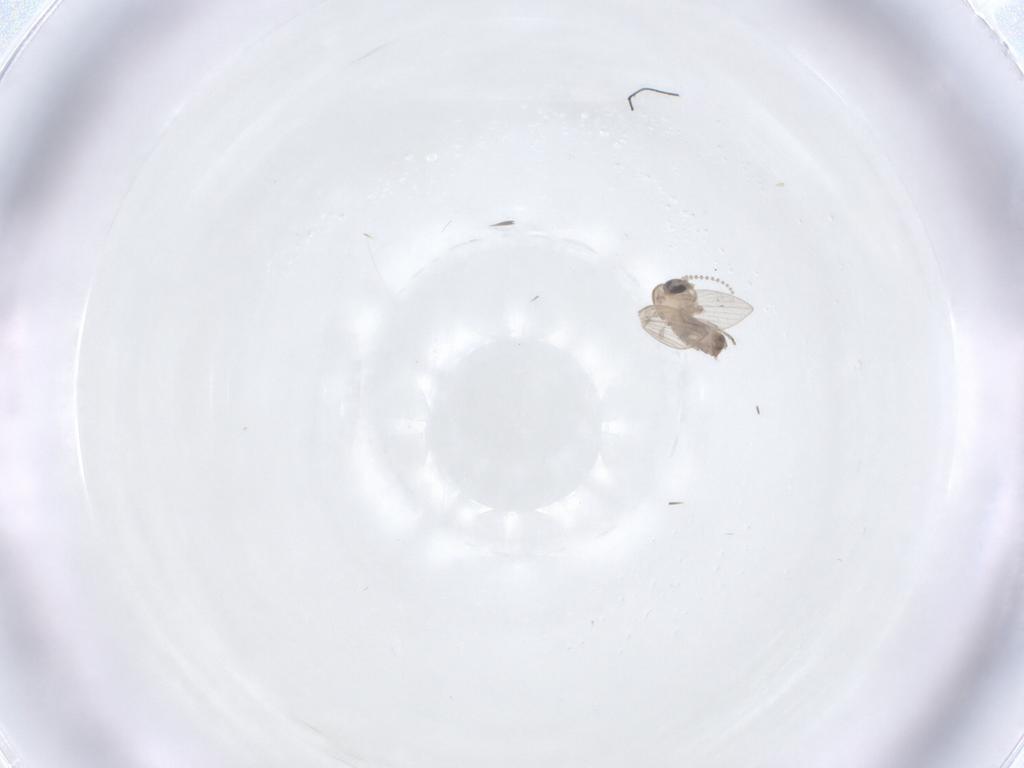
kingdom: Animalia
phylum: Arthropoda
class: Insecta
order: Diptera
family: Psychodidae
